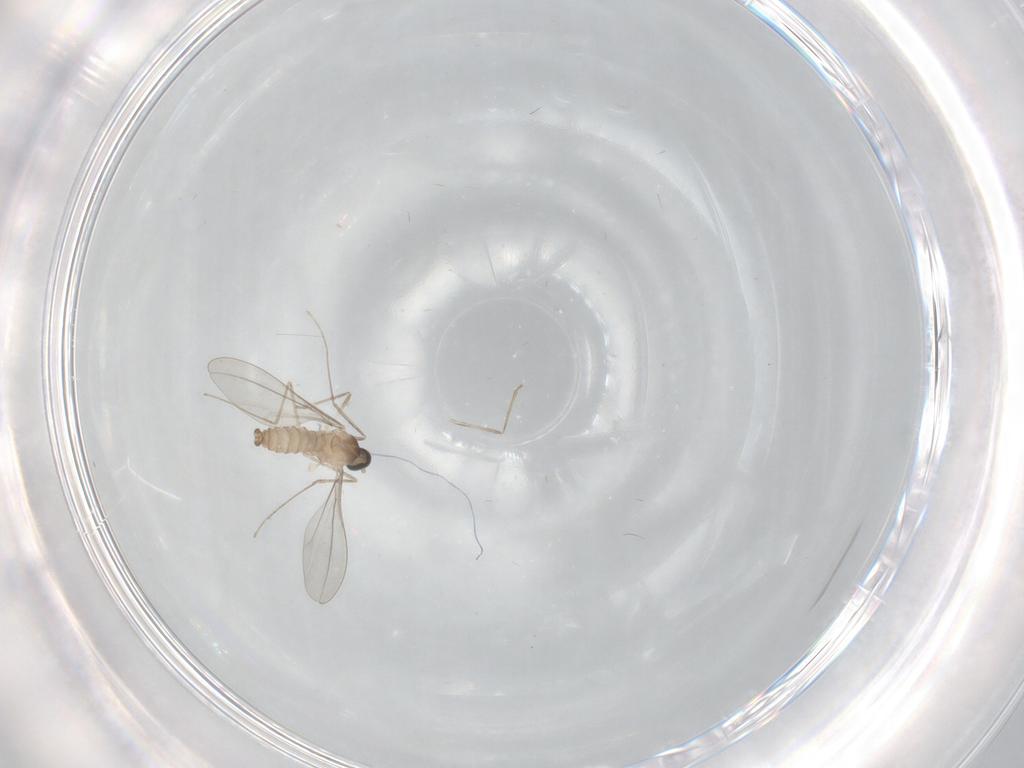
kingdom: Animalia
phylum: Arthropoda
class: Insecta
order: Diptera
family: Cecidomyiidae
